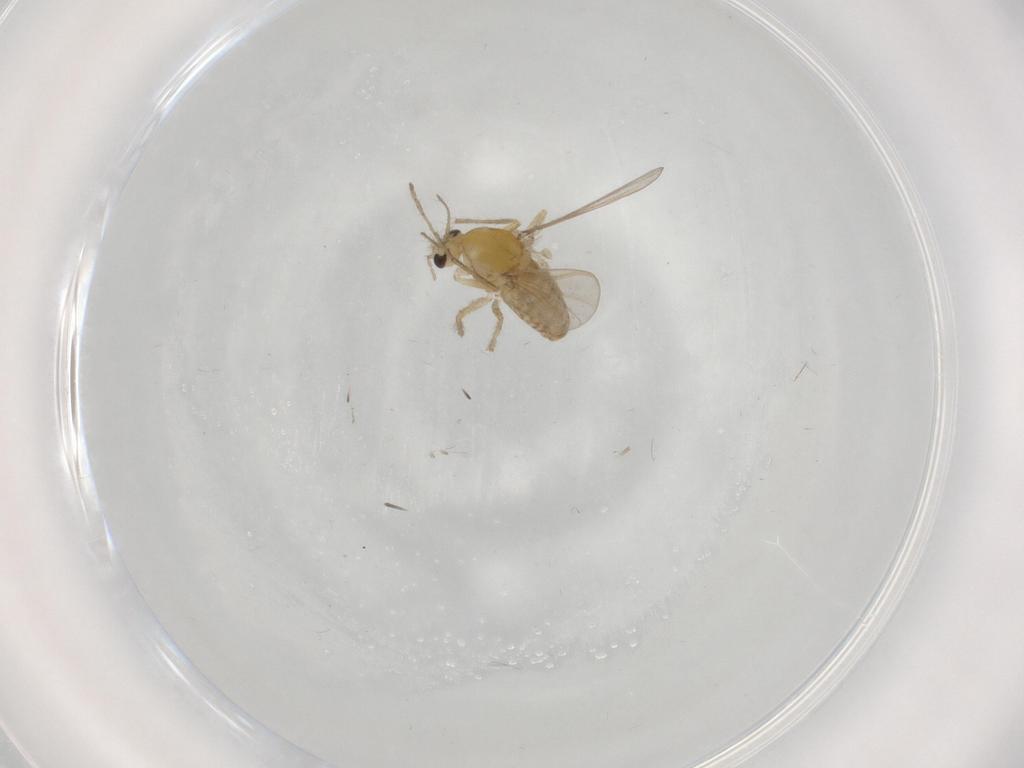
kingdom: Animalia
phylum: Arthropoda
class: Insecta
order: Diptera
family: Chironomidae
